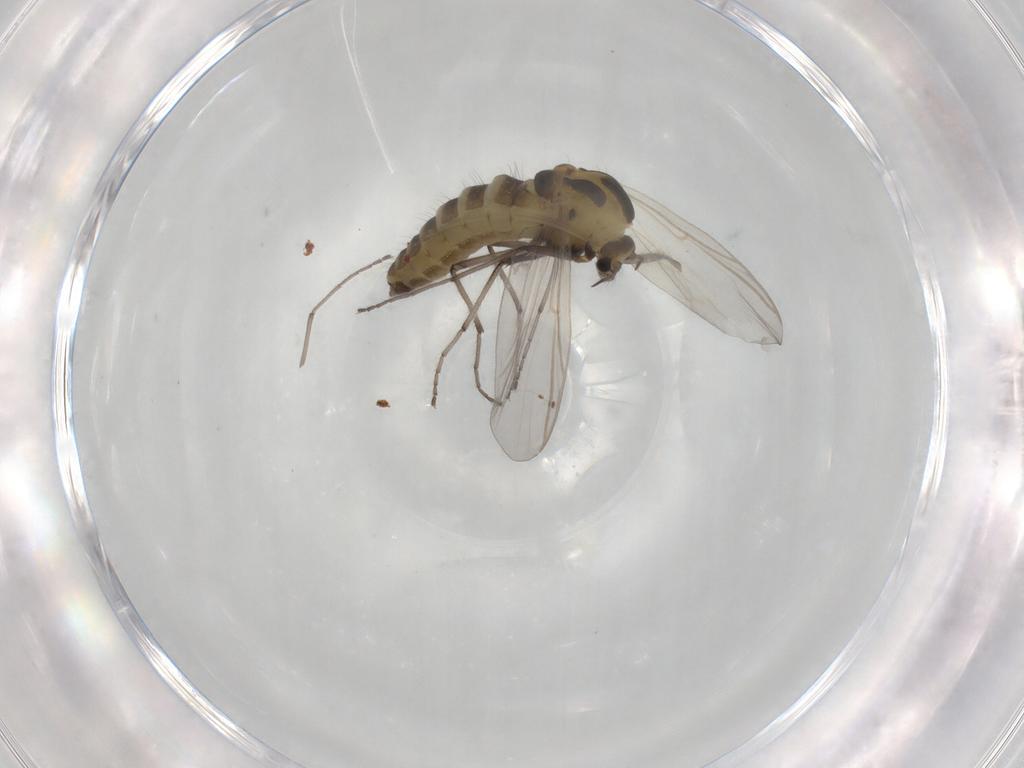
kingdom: Animalia
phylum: Arthropoda
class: Insecta
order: Diptera
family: Chironomidae
